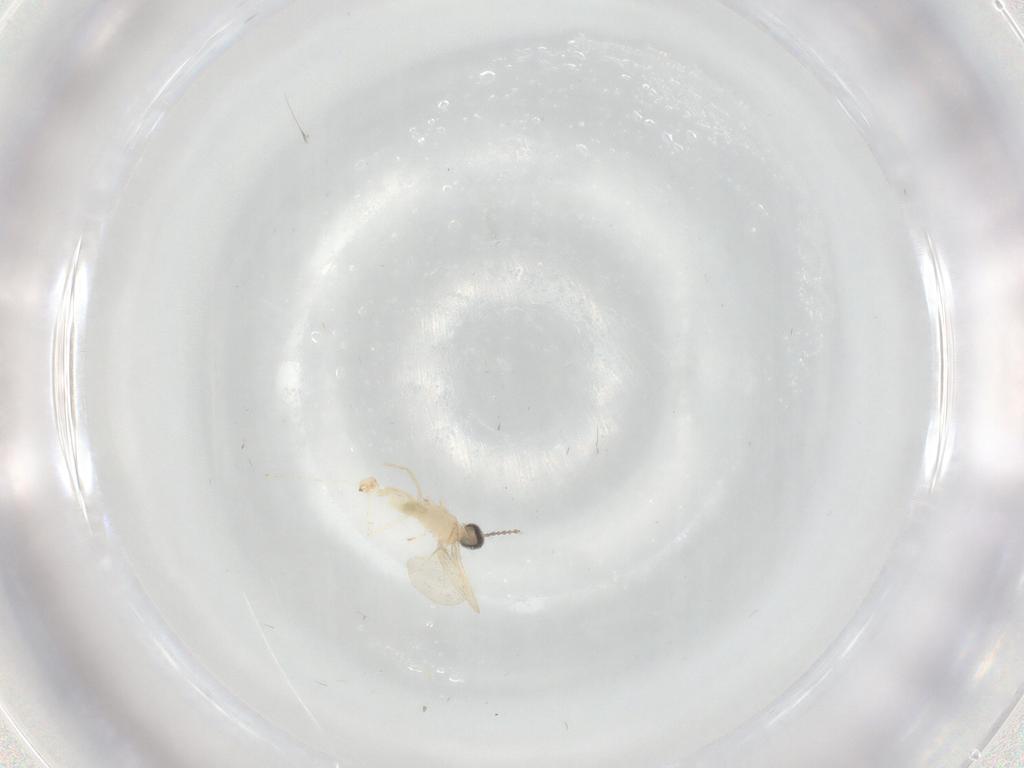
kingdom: Animalia
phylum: Arthropoda
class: Insecta
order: Diptera
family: Cecidomyiidae
